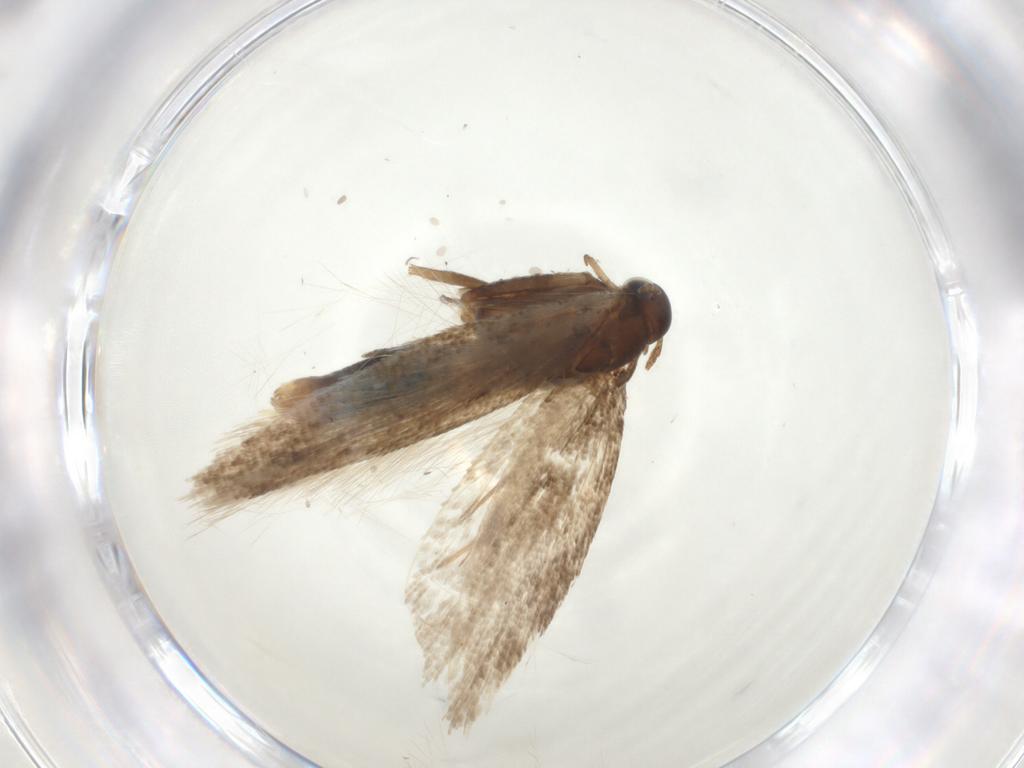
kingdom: Animalia
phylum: Arthropoda
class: Insecta
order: Lepidoptera
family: Gelechiidae
